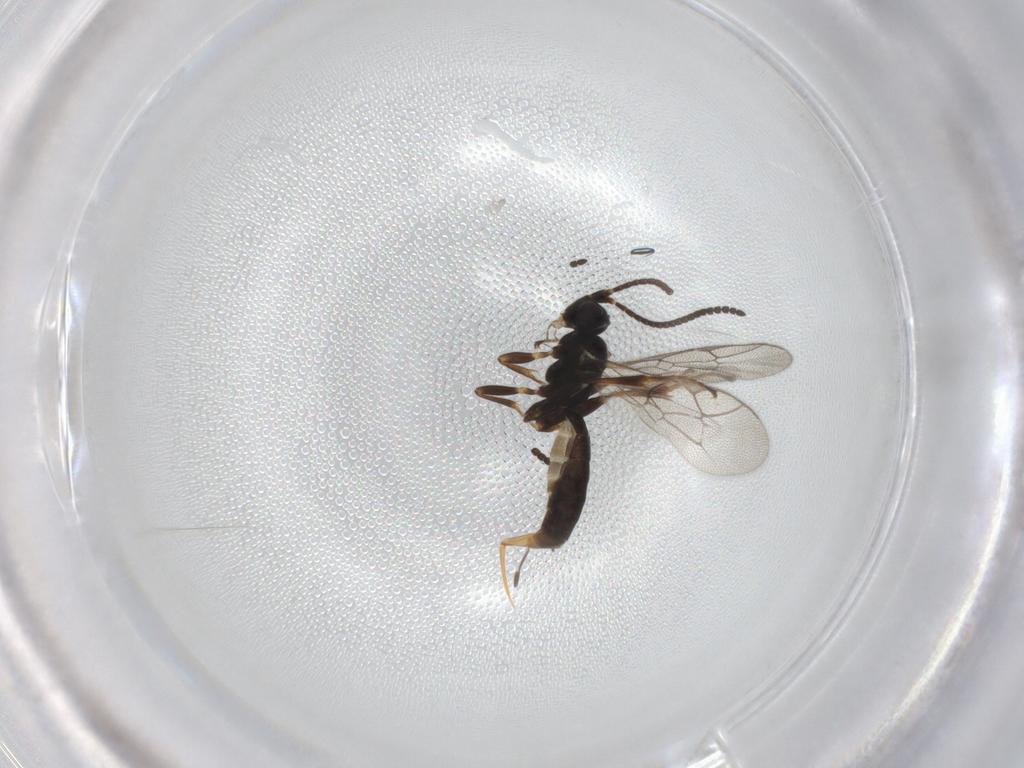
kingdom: Animalia
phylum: Arthropoda
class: Insecta
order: Hymenoptera
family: Ichneumonidae
